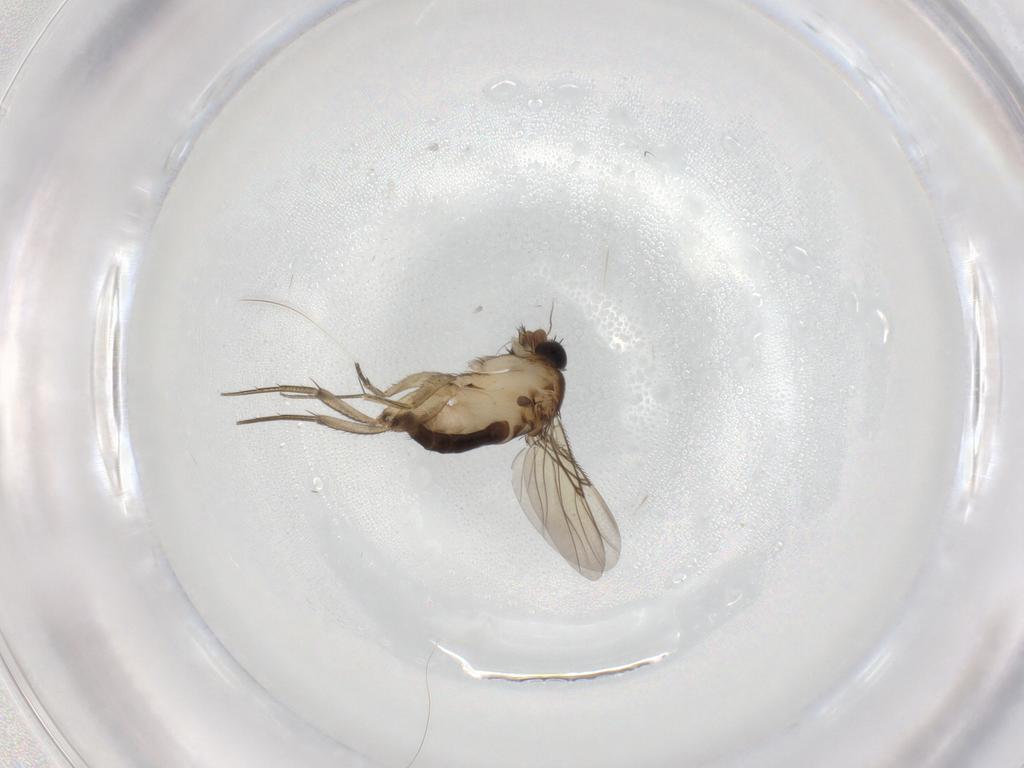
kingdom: Animalia
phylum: Arthropoda
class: Insecta
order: Diptera
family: Phoridae
